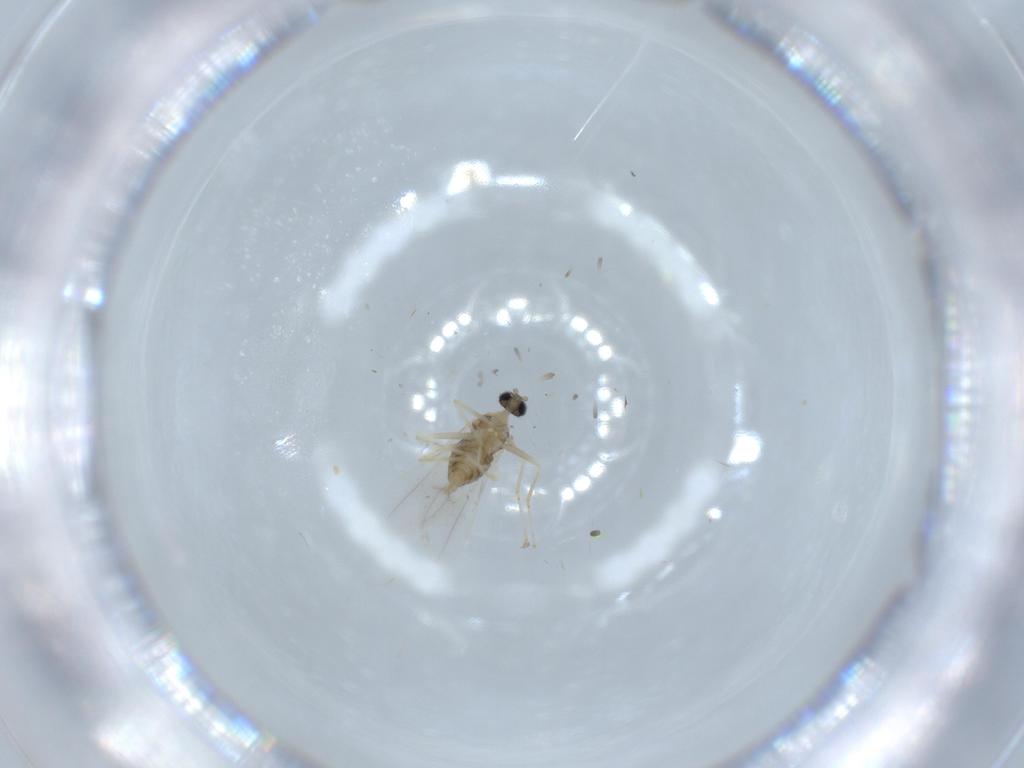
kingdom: Animalia
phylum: Arthropoda
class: Insecta
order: Diptera
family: Cecidomyiidae
